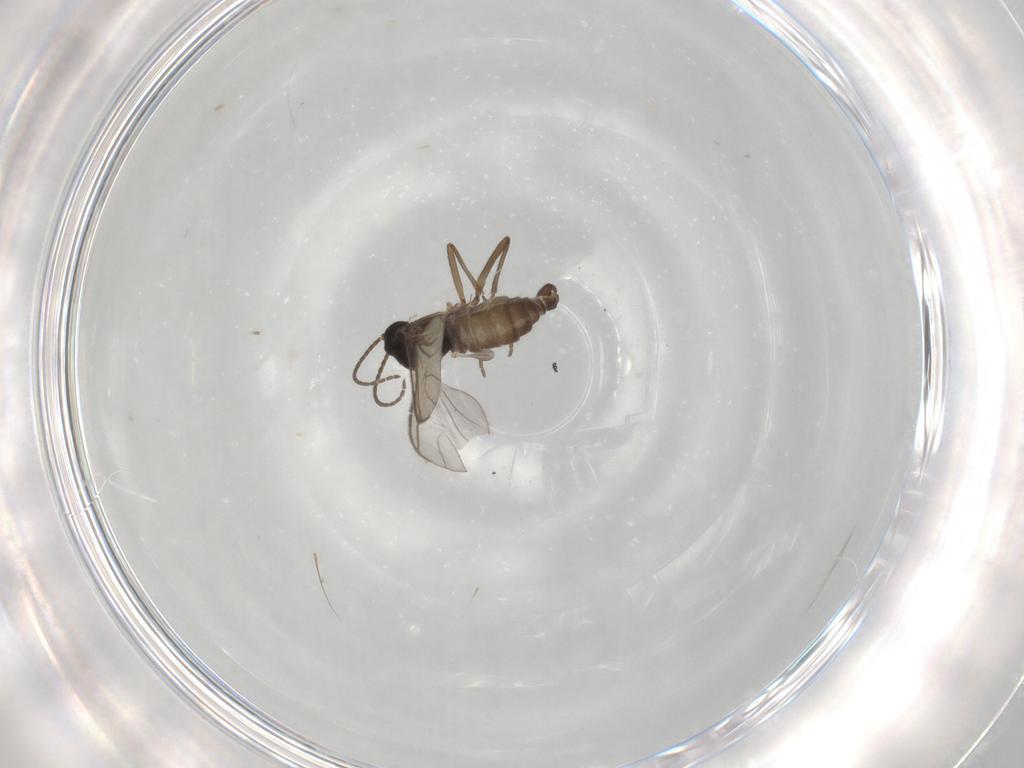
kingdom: Animalia
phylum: Arthropoda
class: Insecta
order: Diptera
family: Sciaridae
